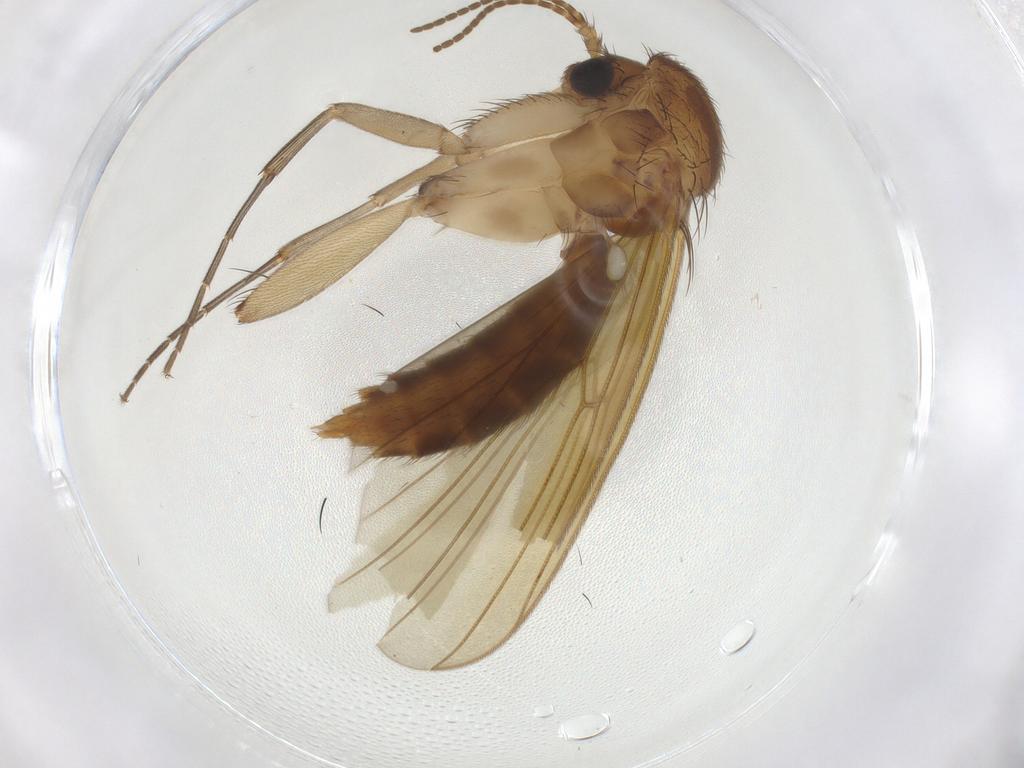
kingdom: Animalia
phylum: Arthropoda
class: Insecta
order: Diptera
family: Mycetophilidae
